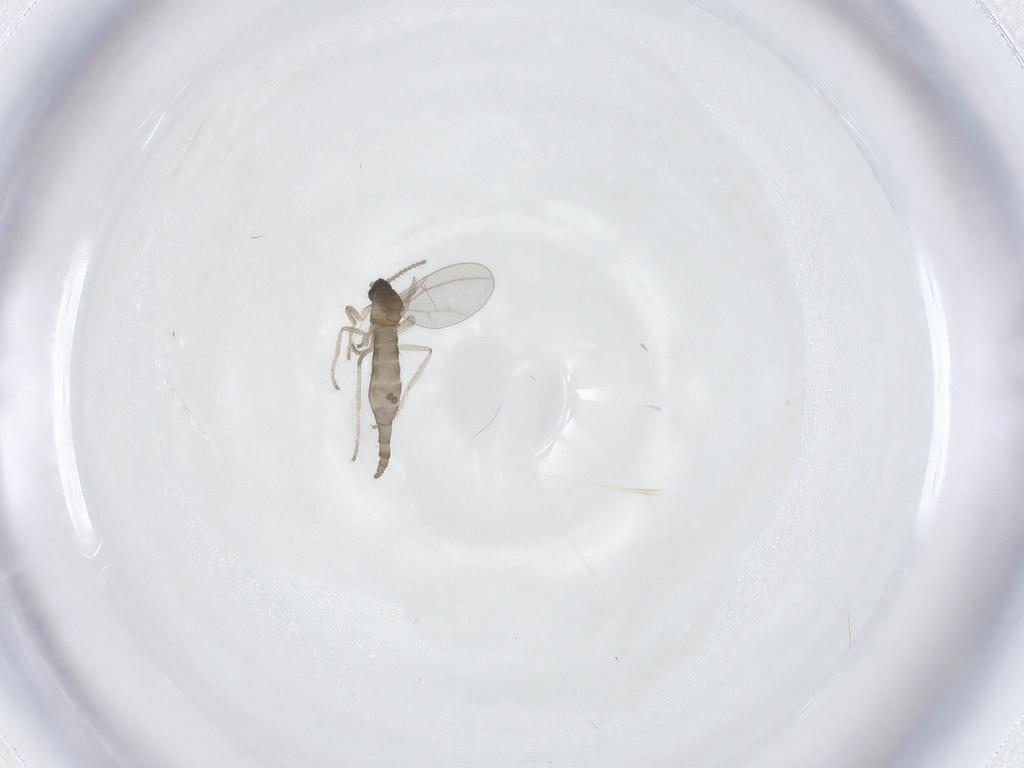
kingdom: Animalia
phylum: Arthropoda
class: Insecta
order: Diptera
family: Cecidomyiidae
